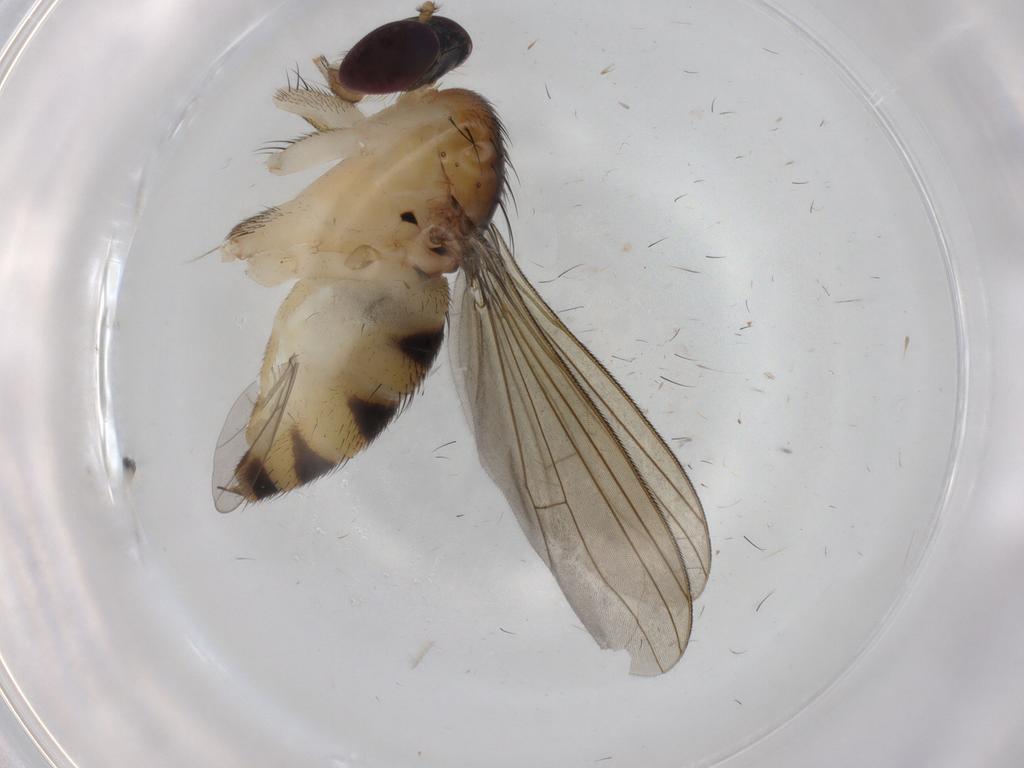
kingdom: Animalia
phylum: Arthropoda
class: Insecta
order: Diptera
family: Dolichopodidae
